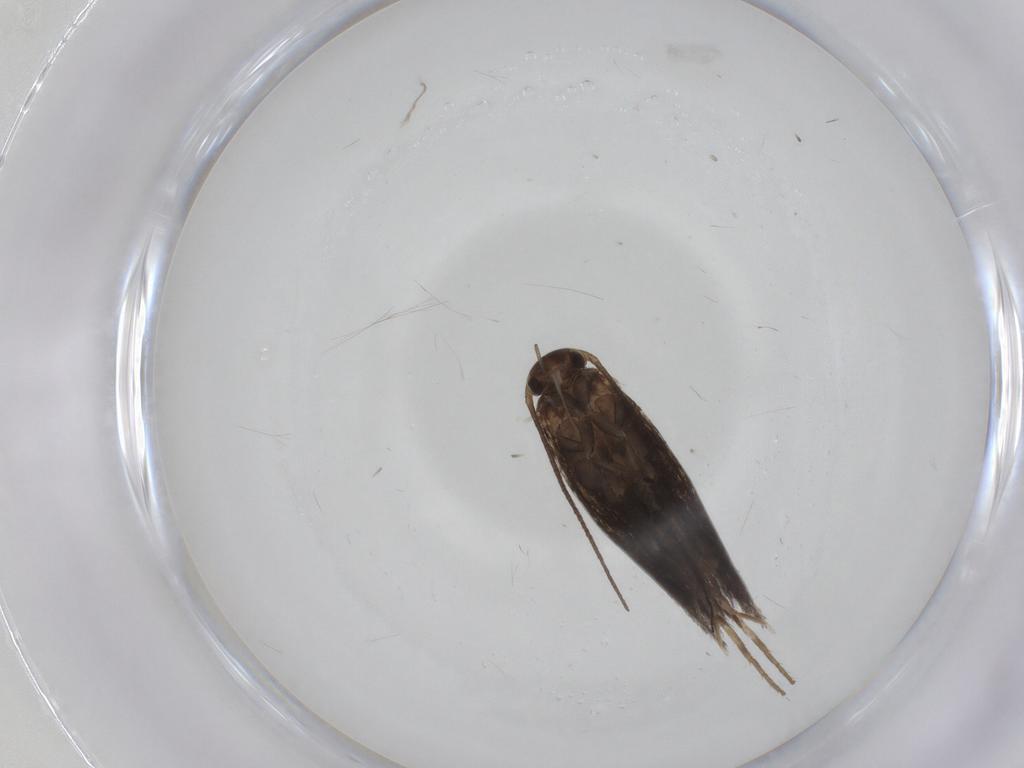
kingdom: Animalia
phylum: Arthropoda
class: Insecta
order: Lepidoptera
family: Elachistidae
